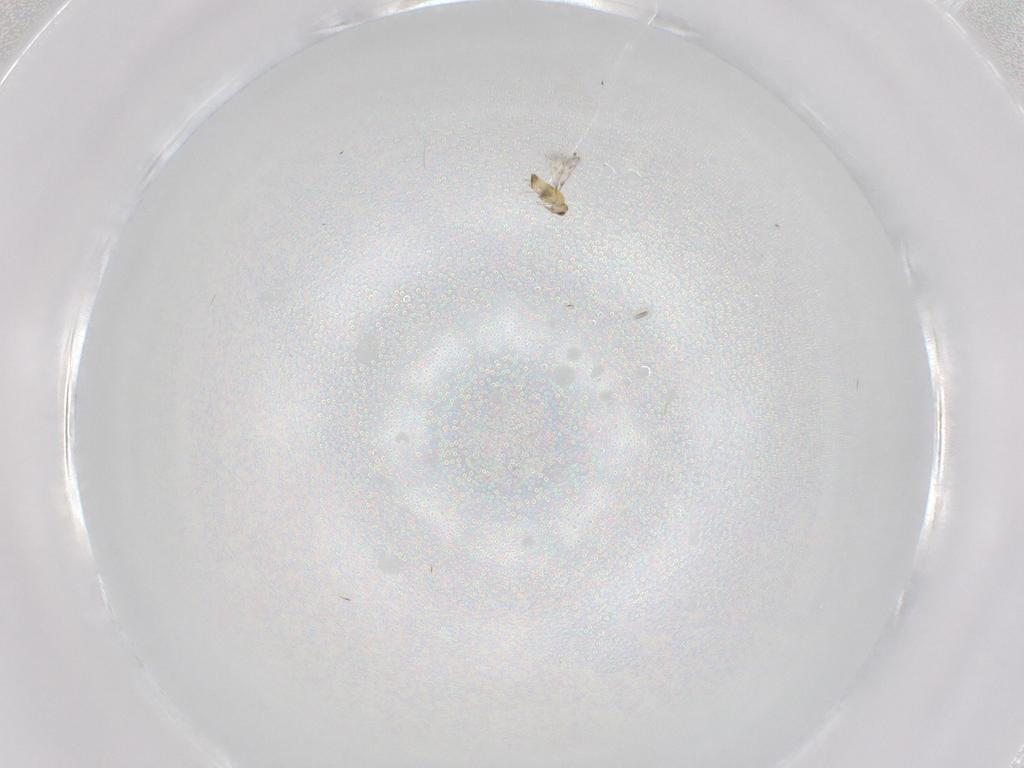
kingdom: Animalia
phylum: Arthropoda
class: Insecta
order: Hymenoptera
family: Trichogrammatidae
